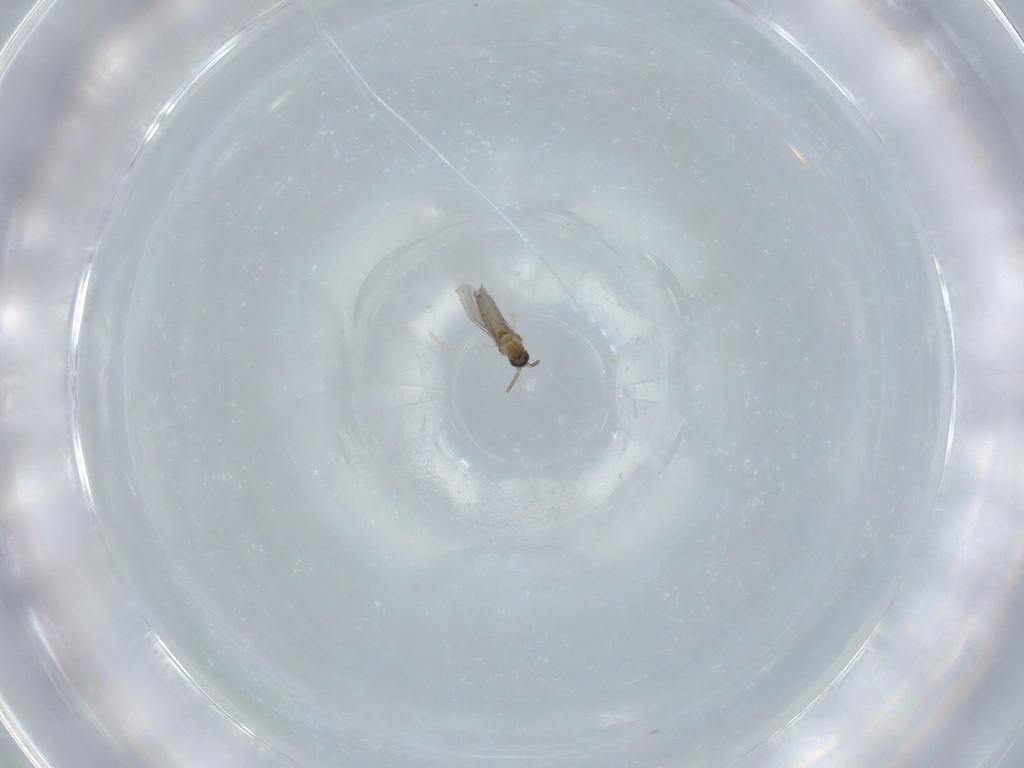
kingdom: Animalia
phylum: Arthropoda
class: Insecta
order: Diptera
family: Cecidomyiidae
